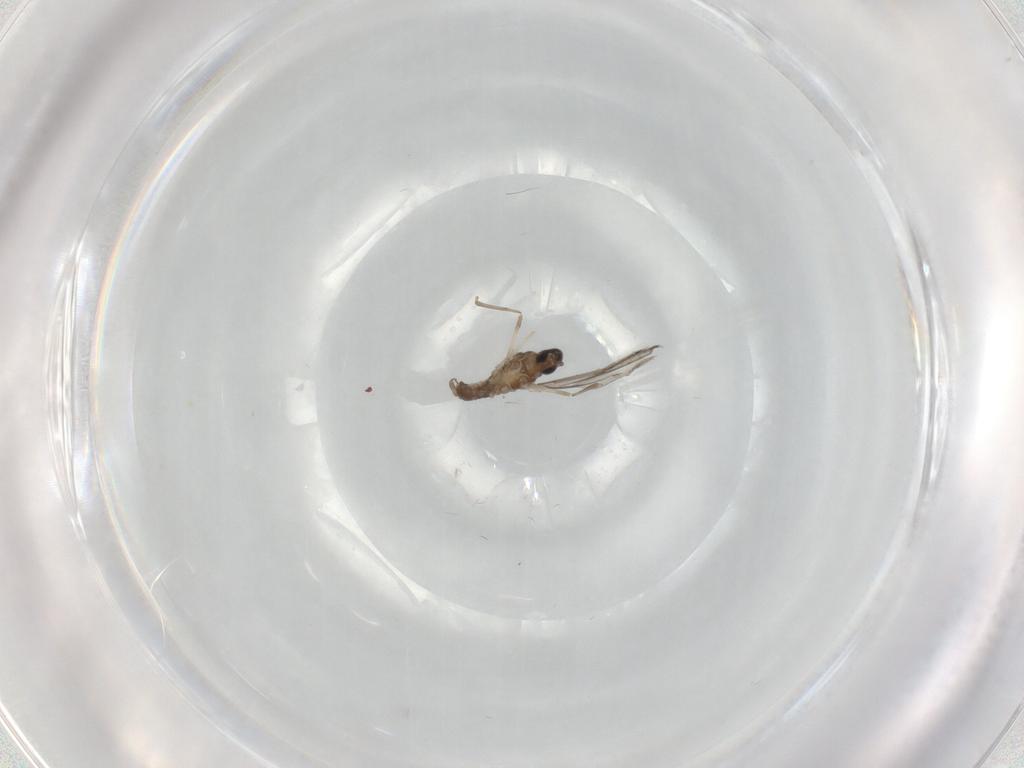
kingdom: Animalia
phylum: Arthropoda
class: Insecta
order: Diptera
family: Limoniidae
